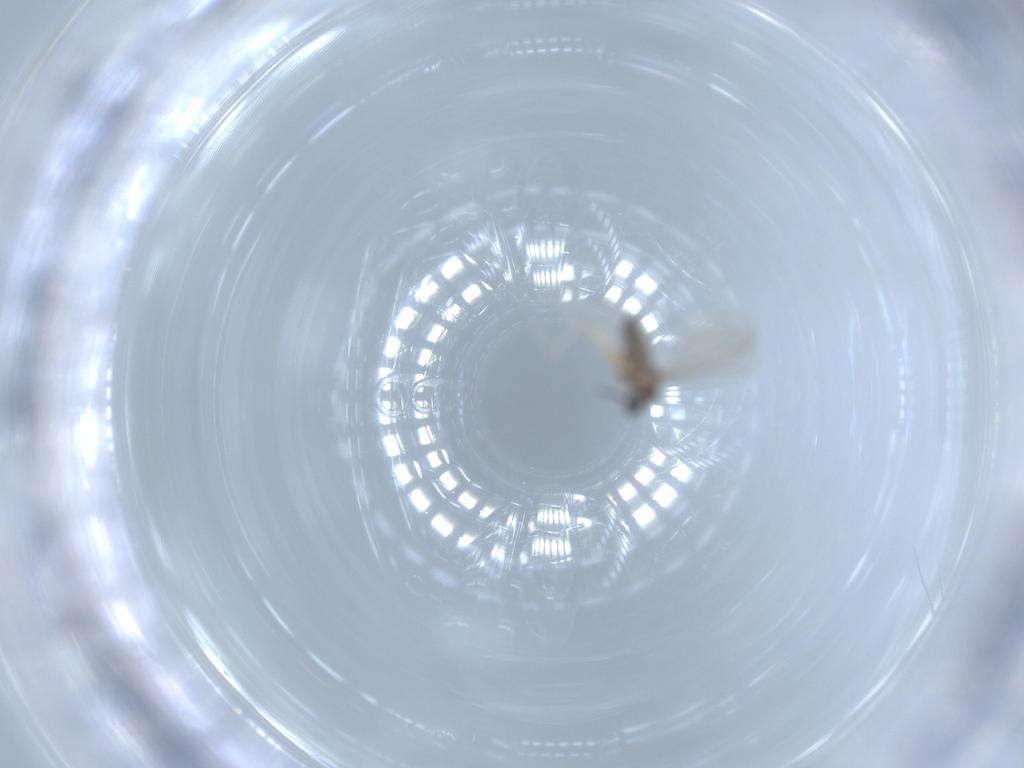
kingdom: Animalia
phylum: Arthropoda
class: Insecta
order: Diptera
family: Cecidomyiidae
